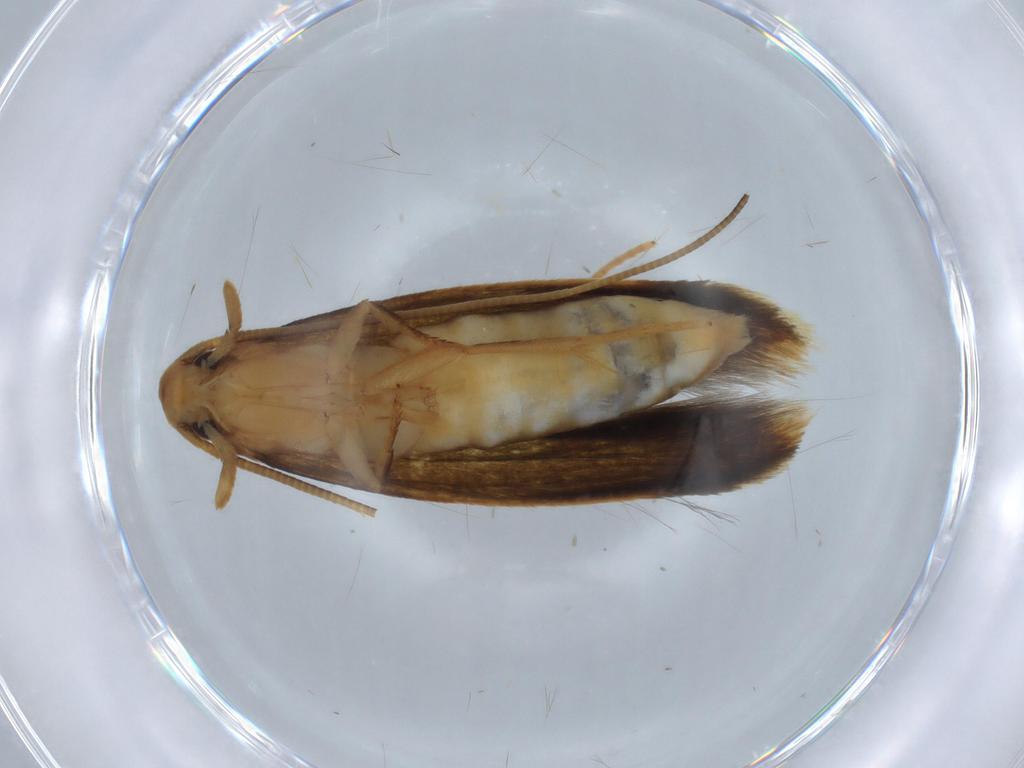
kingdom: Animalia
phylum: Arthropoda
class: Insecta
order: Lepidoptera
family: Tineidae
